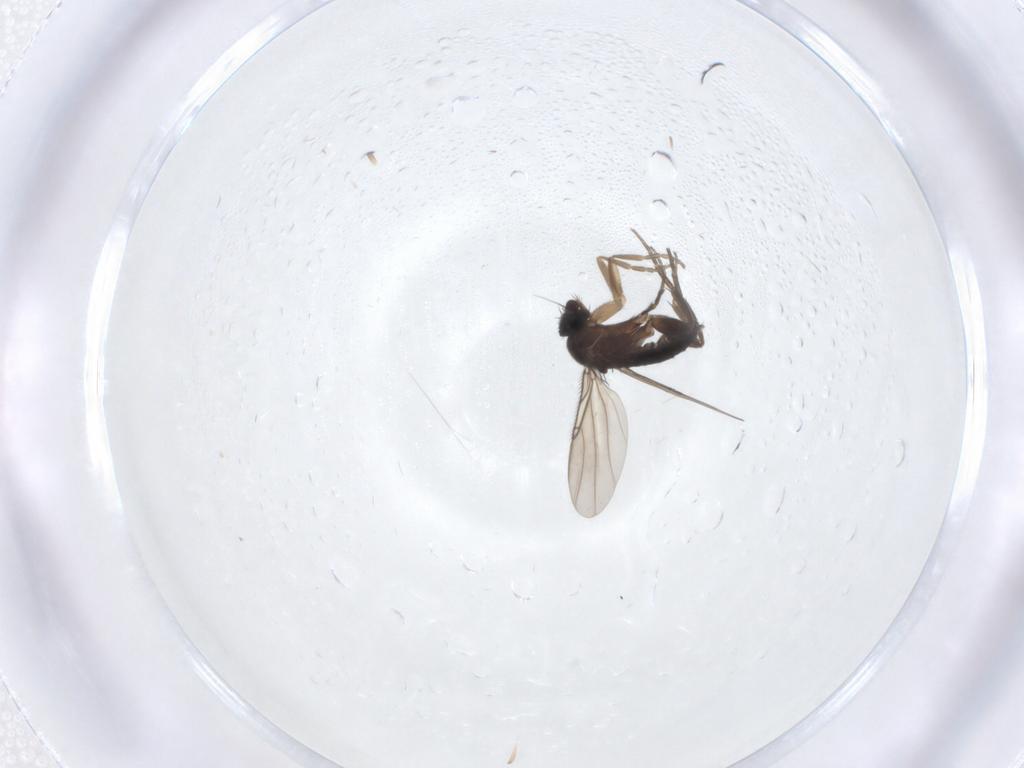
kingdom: Animalia
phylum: Arthropoda
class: Insecta
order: Diptera
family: Phoridae
